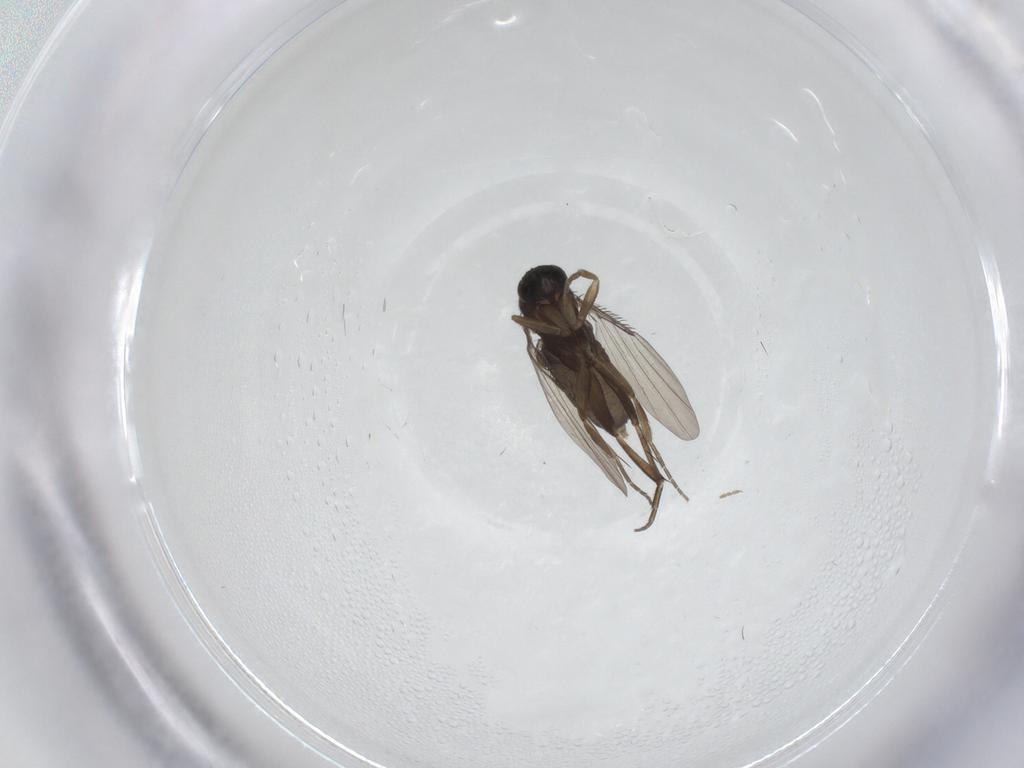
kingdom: Animalia
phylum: Arthropoda
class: Insecta
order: Diptera
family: Phoridae
